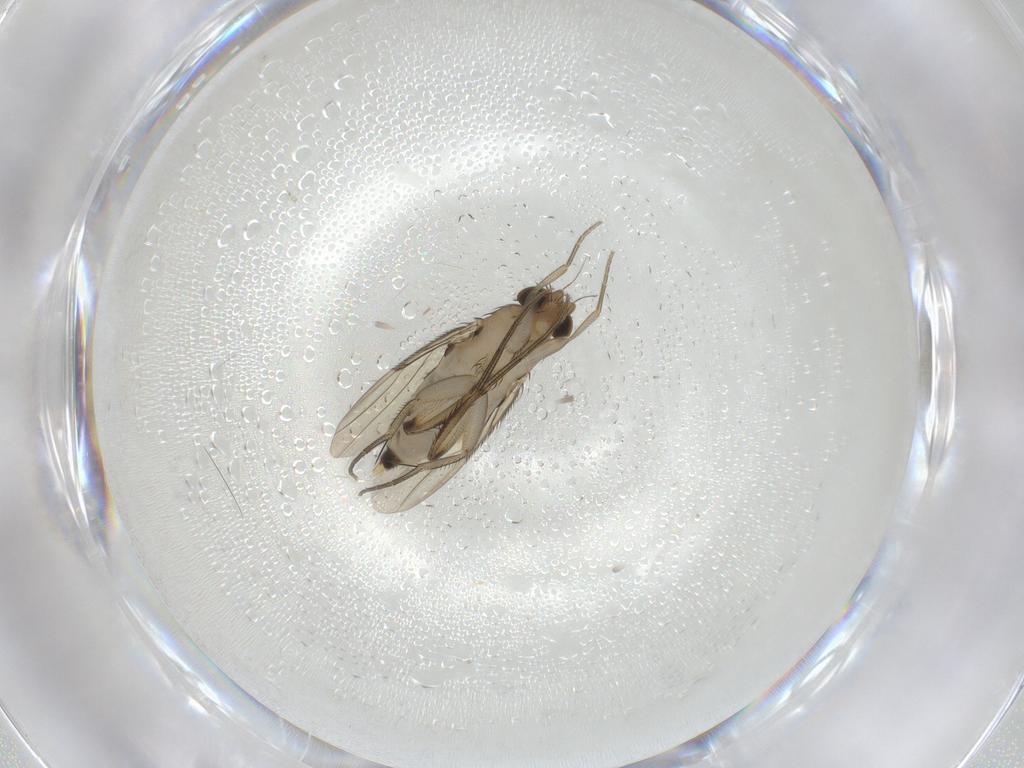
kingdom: Animalia
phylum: Arthropoda
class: Insecta
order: Diptera
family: Phoridae
